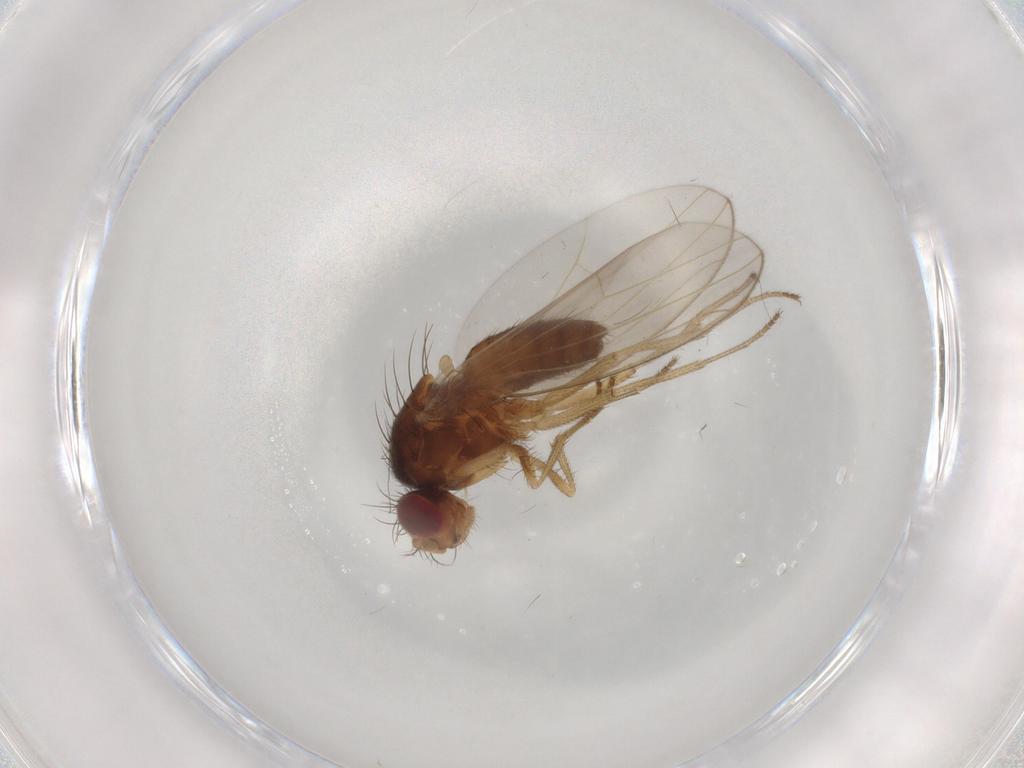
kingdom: Animalia
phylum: Arthropoda
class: Insecta
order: Diptera
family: Drosophilidae
